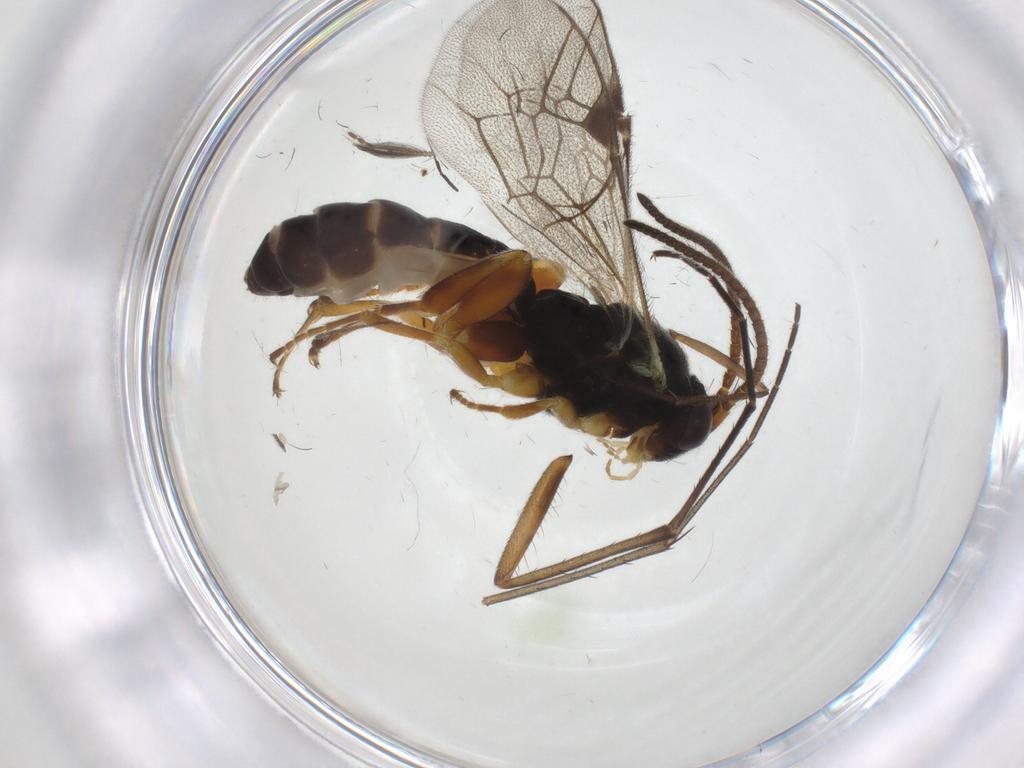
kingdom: Animalia
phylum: Arthropoda
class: Insecta
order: Hymenoptera
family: Ichneumonidae
